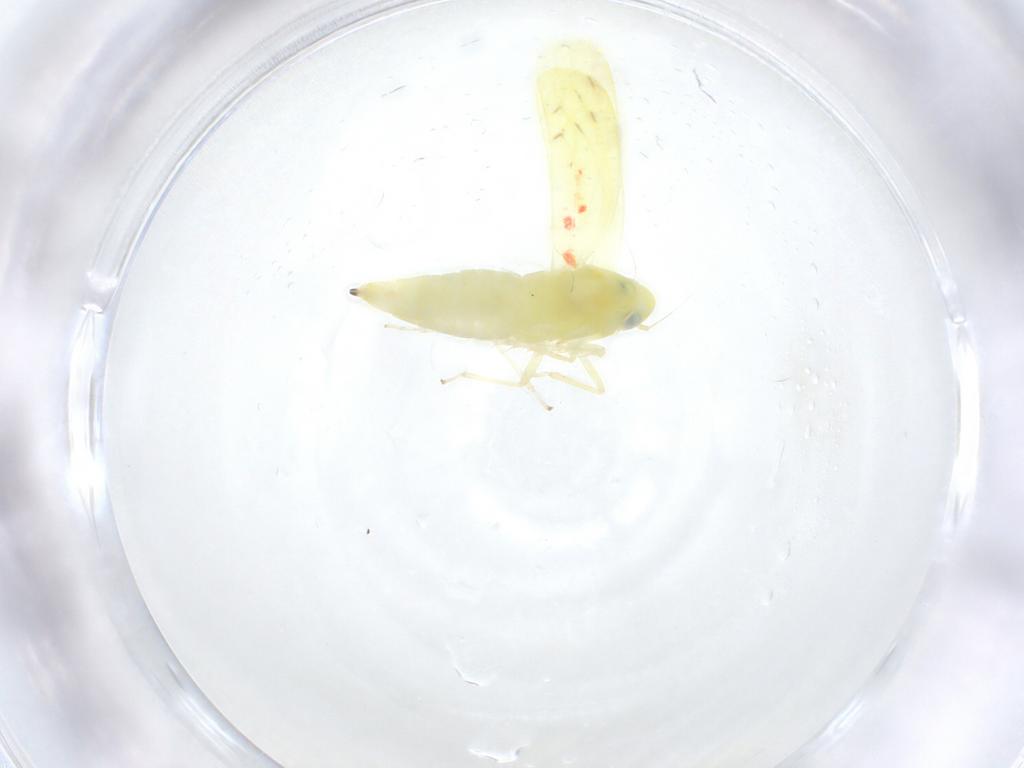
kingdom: Animalia
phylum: Arthropoda
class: Insecta
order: Hemiptera
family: Cicadellidae
